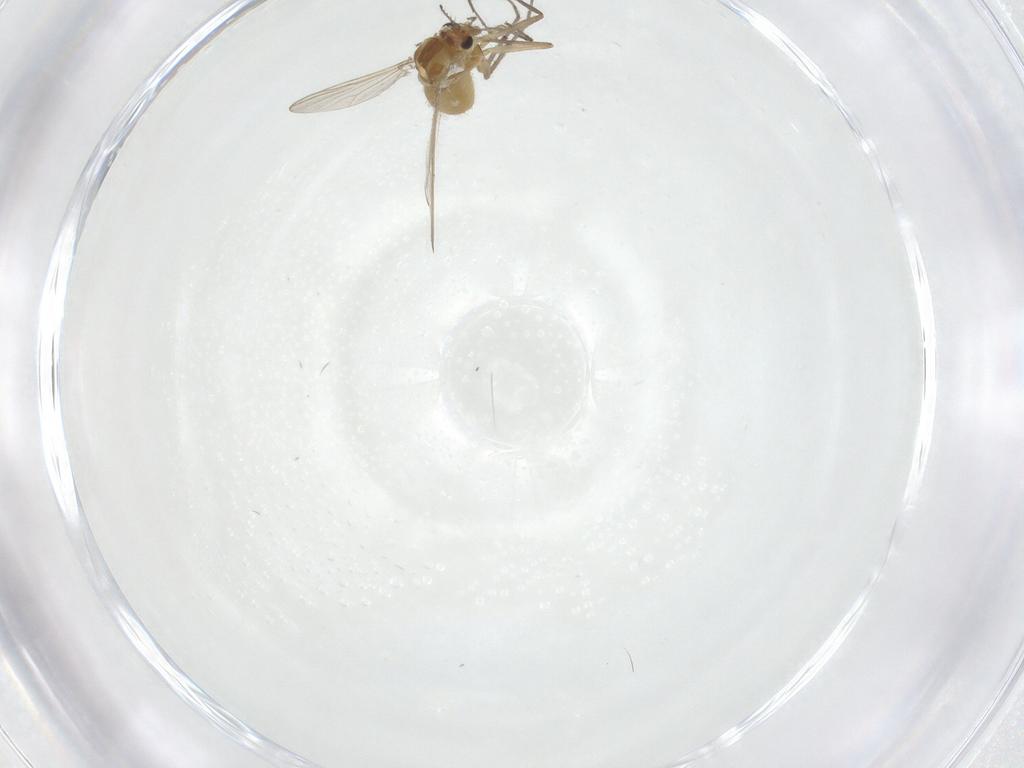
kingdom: Animalia
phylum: Arthropoda
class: Insecta
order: Diptera
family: Chironomidae
